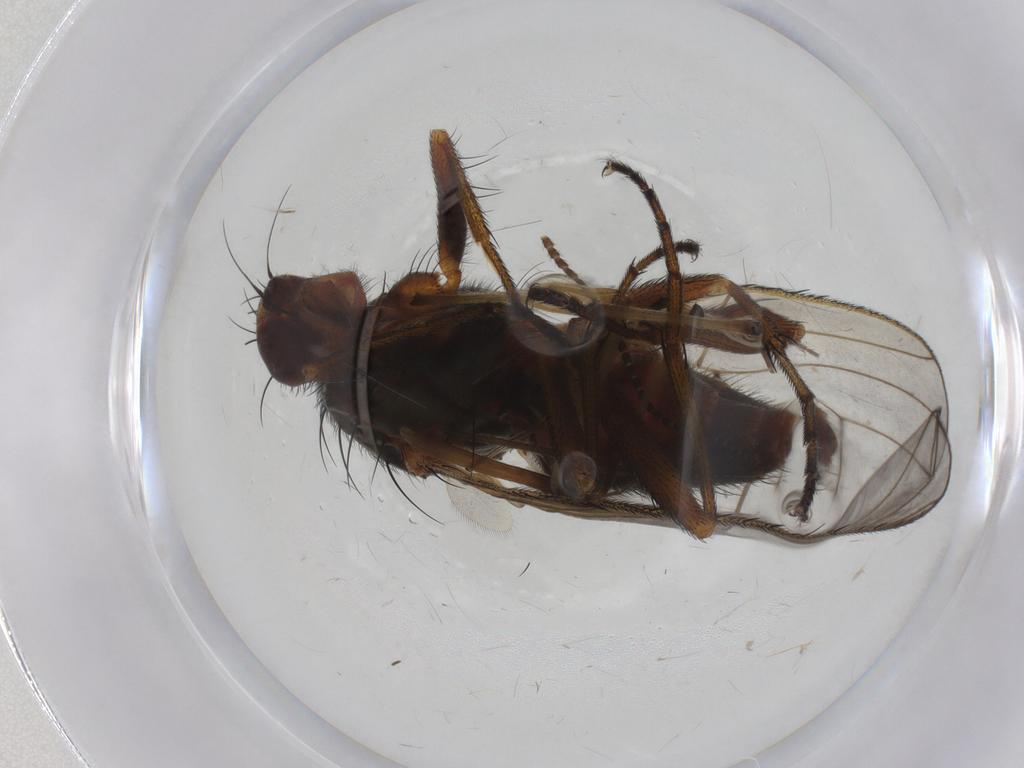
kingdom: Animalia
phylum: Arthropoda
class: Insecta
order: Diptera
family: Heleomyzidae
